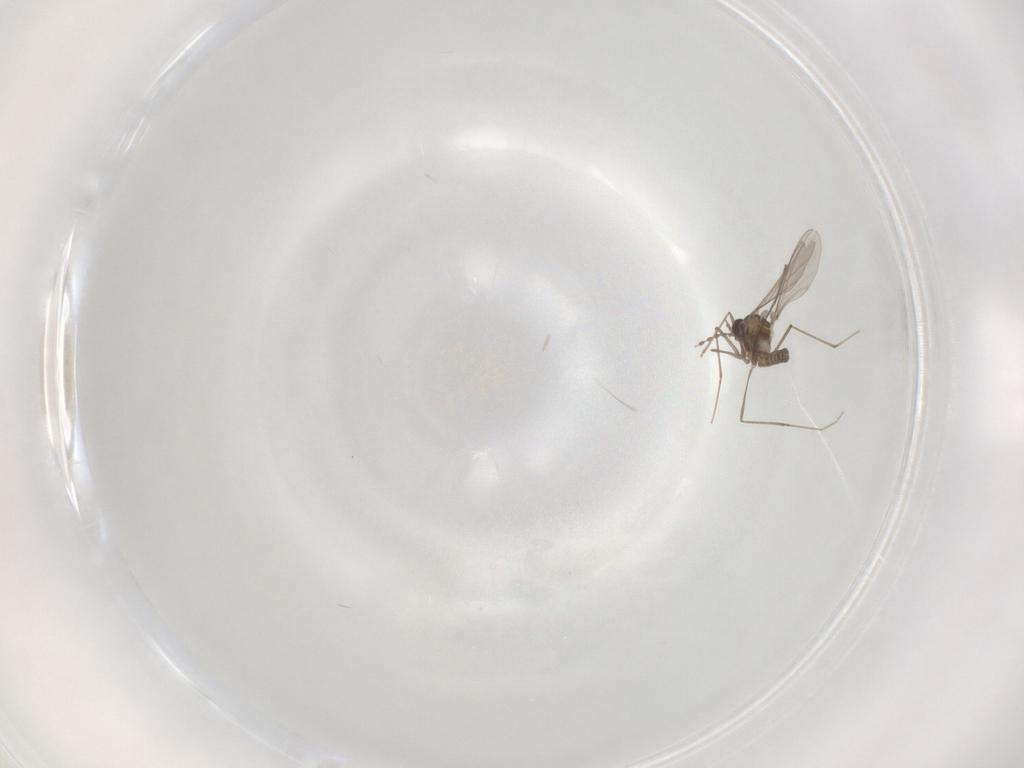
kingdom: Animalia
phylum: Arthropoda
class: Insecta
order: Diptera
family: Cecidomyiidae
